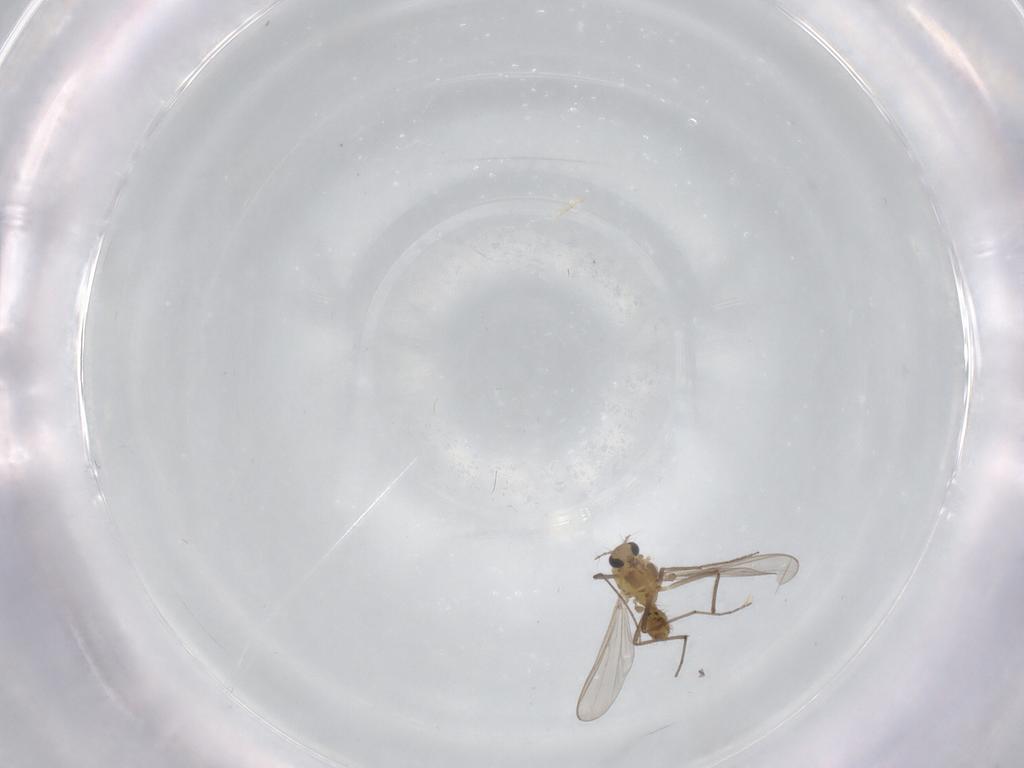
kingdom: Animalia
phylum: Arthropoda
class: Insecta
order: Diptera
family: Chironomidae
